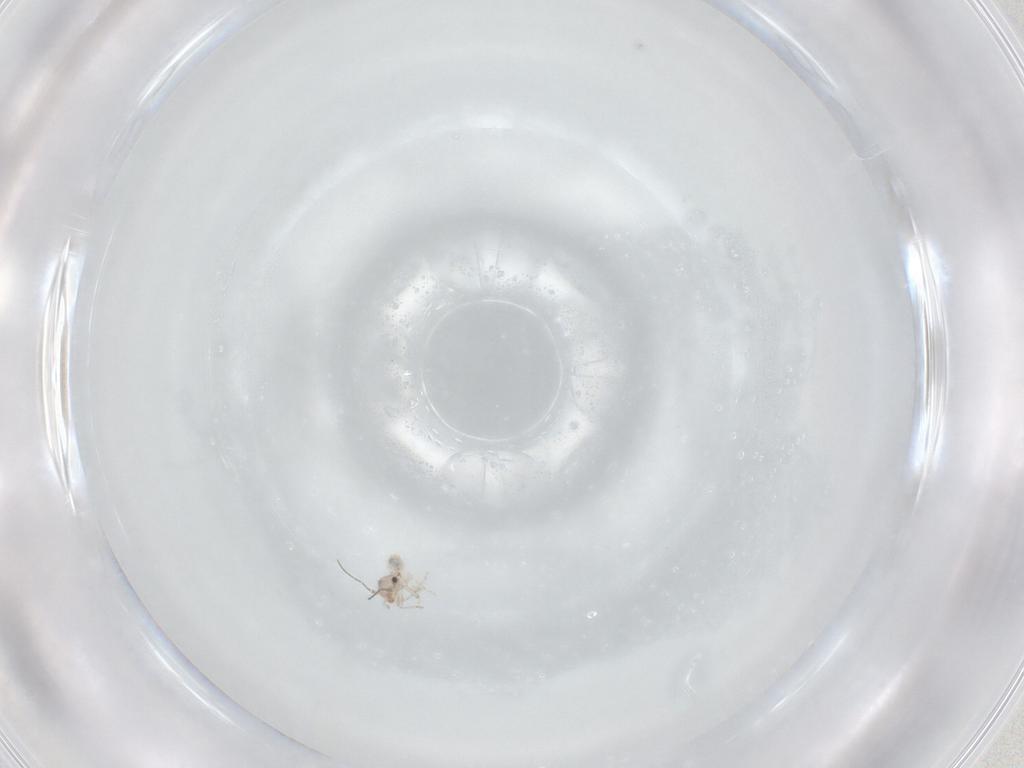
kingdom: Animalia
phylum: Arthropoda
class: Insecta
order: Psocodea
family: Lepidopsocidae
